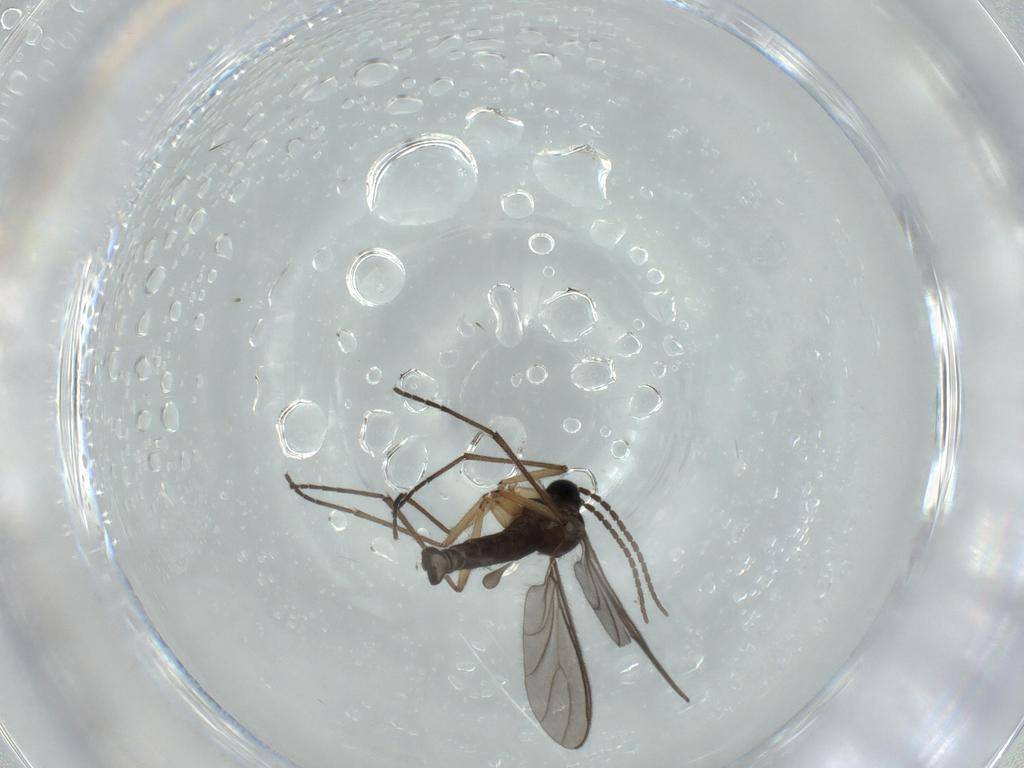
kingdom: Animalia
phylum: Arthropoda
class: Insecta
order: Diptera
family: Sciaridae
